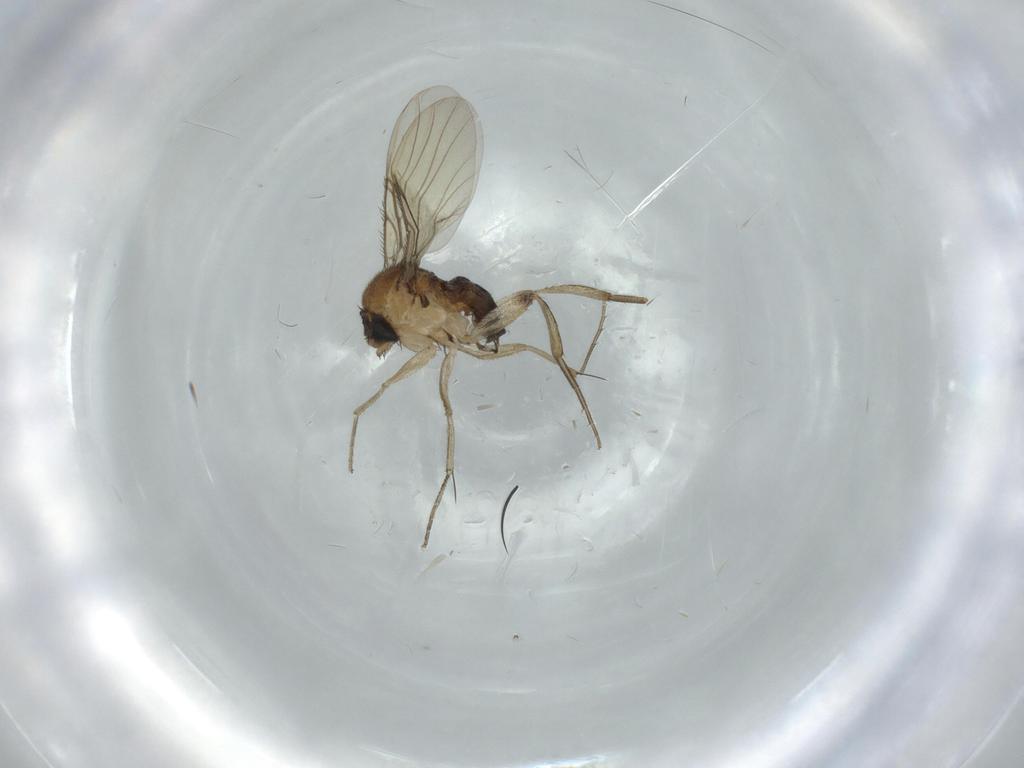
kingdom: Animalia
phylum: Arthropoda
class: Insecta
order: Diptera
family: Phoridae
